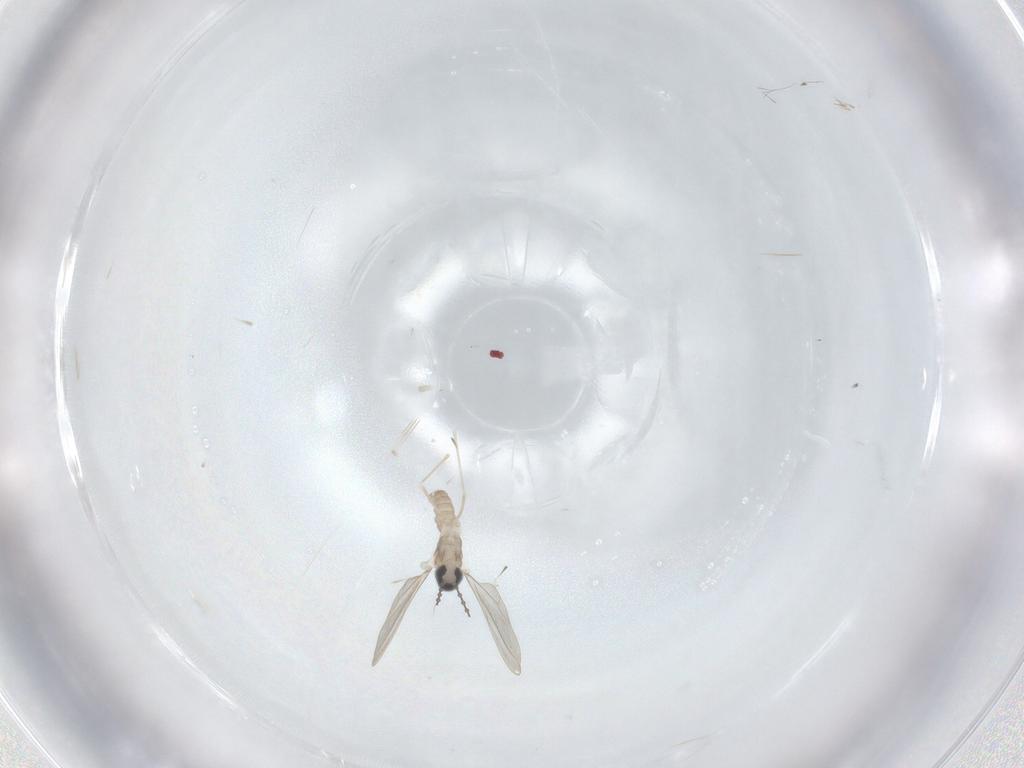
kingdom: Animalia
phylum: Arthropoda
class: Insecta
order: Diptera
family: Cecidomyiidae
